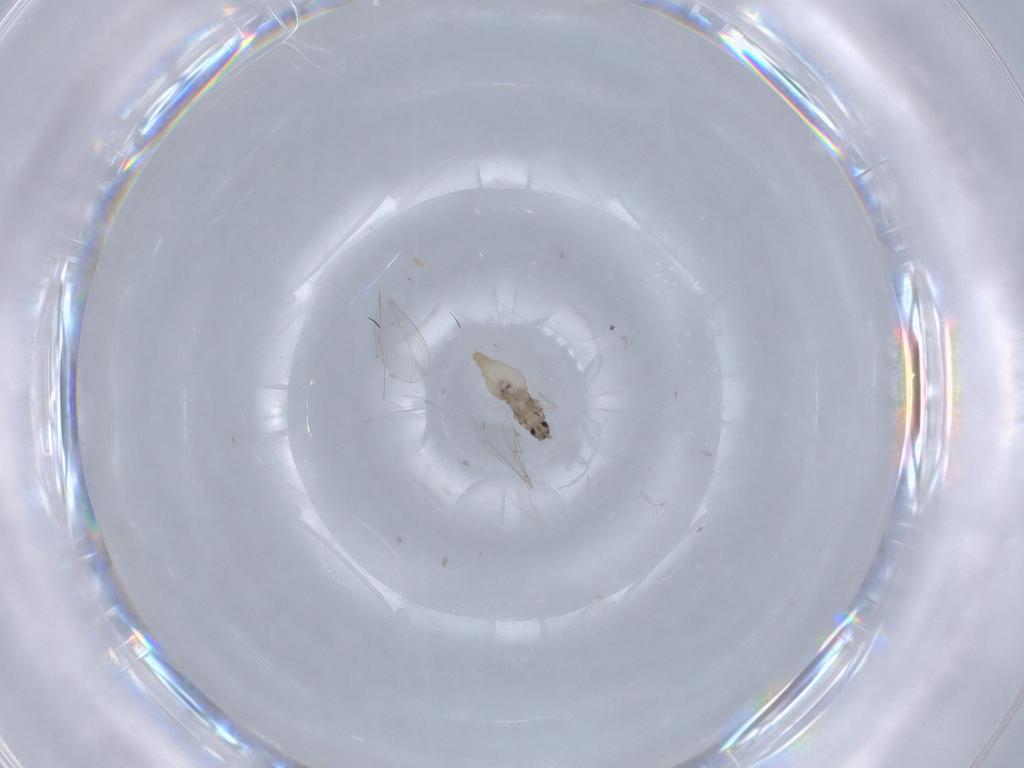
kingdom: Animalia
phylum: Arthropoda
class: Insecta
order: Diptera
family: Cecidomyiidae
